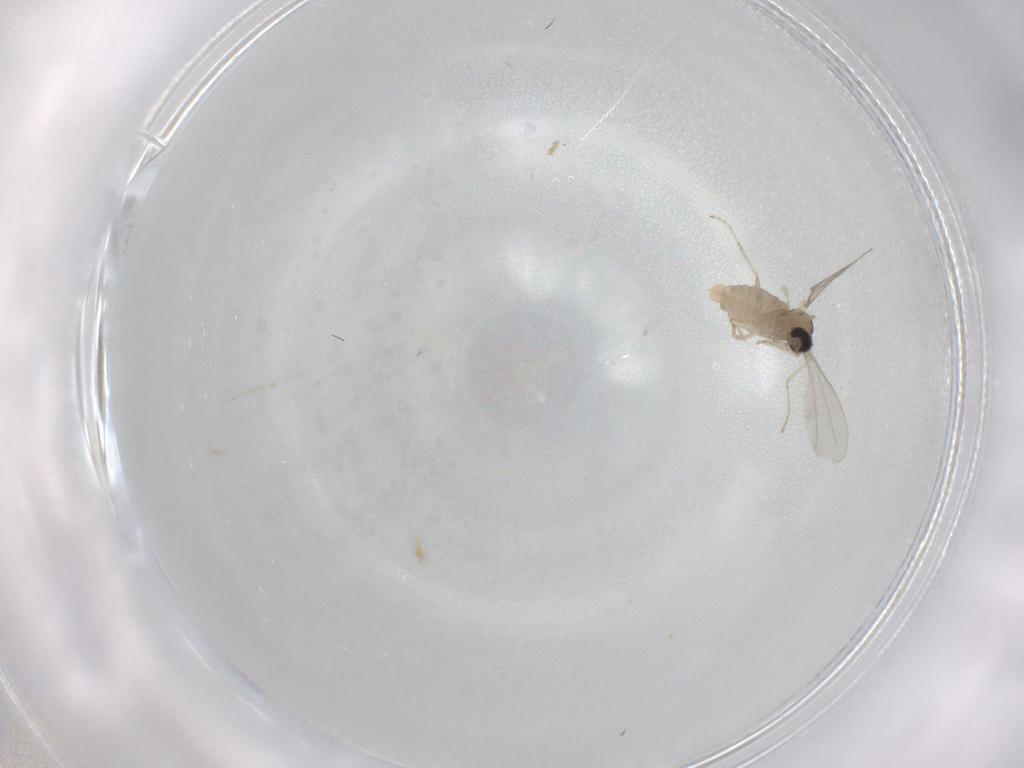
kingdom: Animalia
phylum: Arthropoda
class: Insecta
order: Diptera
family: Cecidomyiidae
